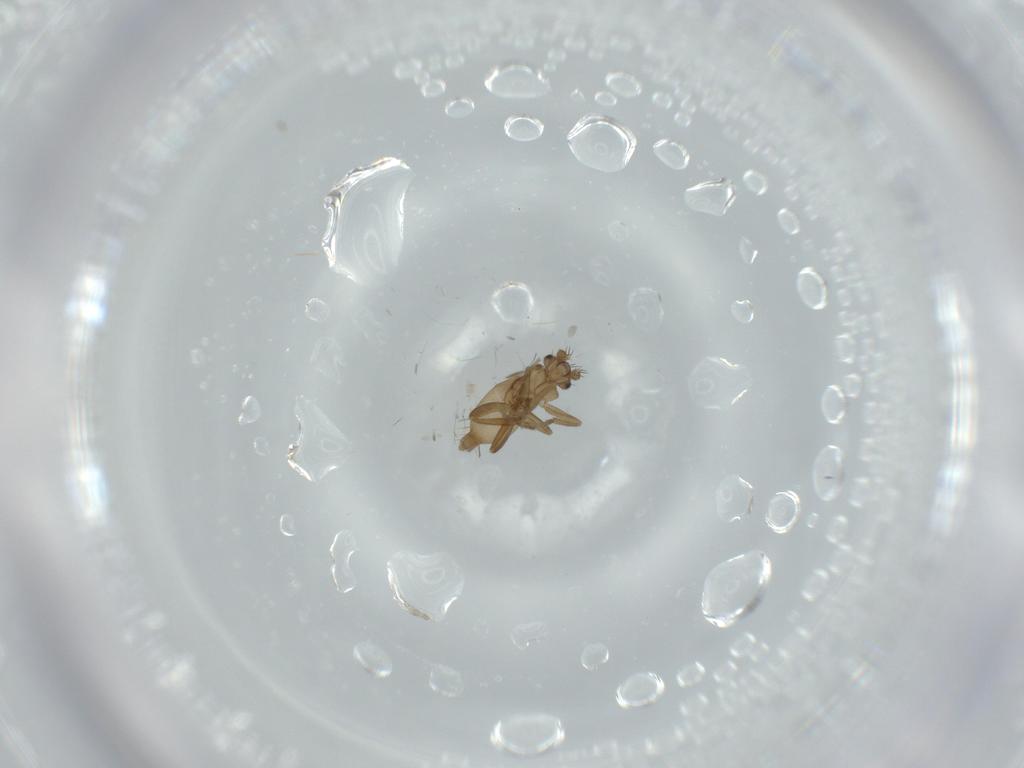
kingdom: Animalia
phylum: Arthropoda
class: Insecta
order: Diptera
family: Phoridae
